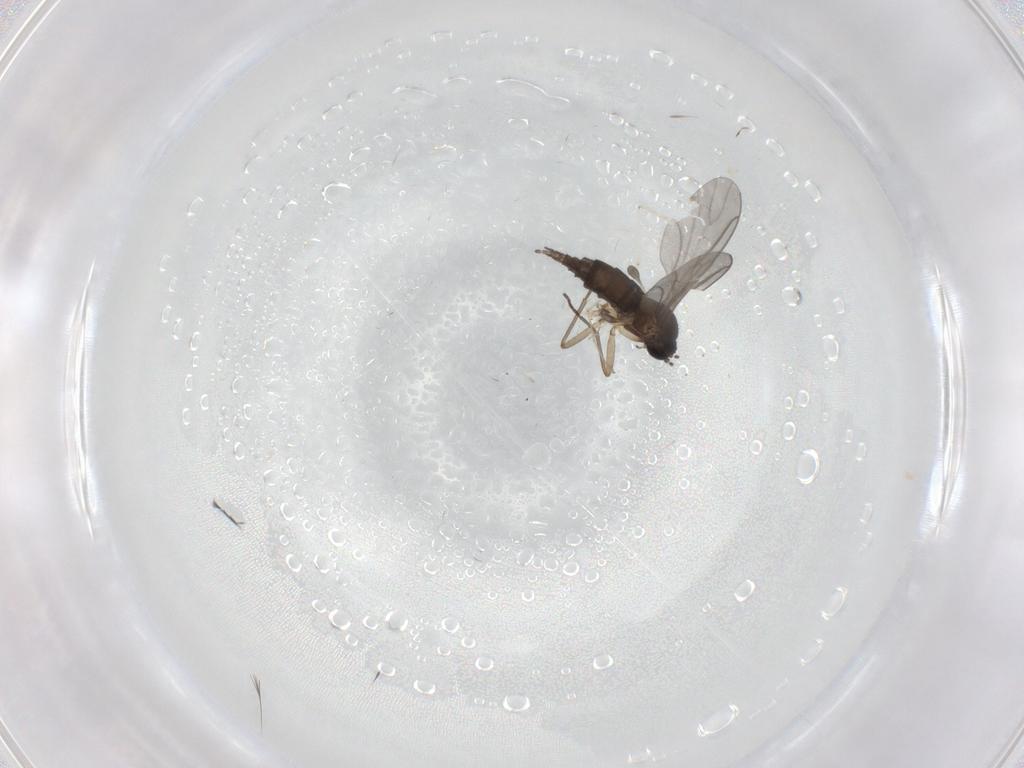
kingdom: Animalia
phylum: Arthropoda
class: Insecta
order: Diptera
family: Sciaridae
